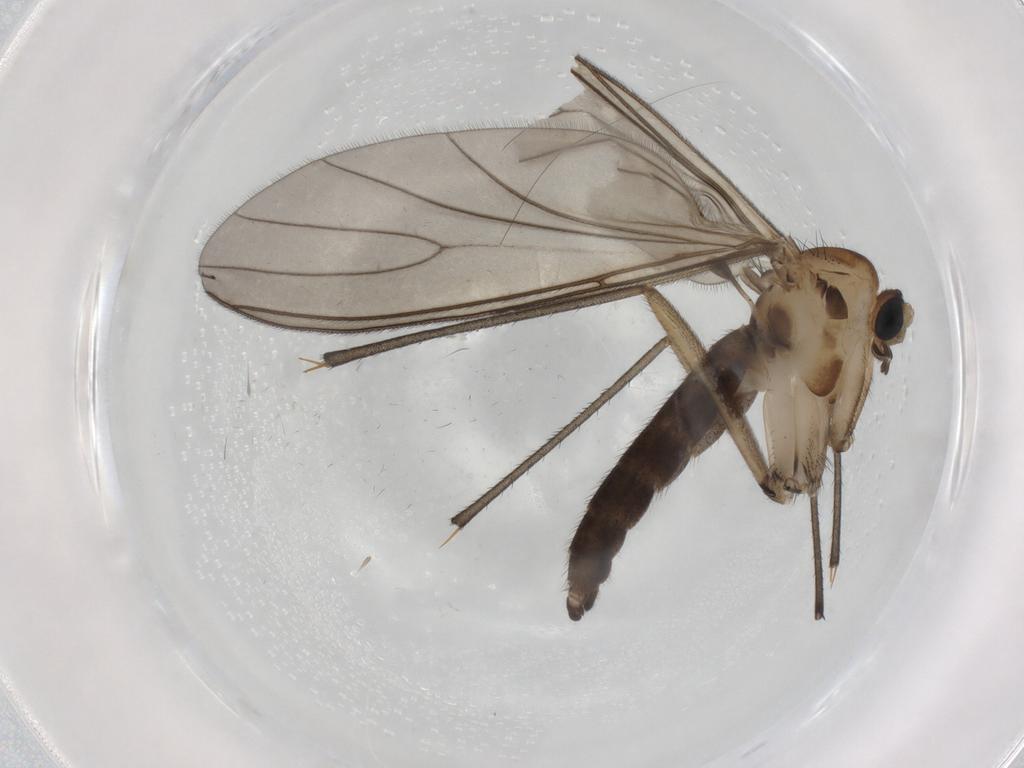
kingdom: Animalia
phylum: Arthropoda
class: Insecta
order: Diptera
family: Sciaridae
